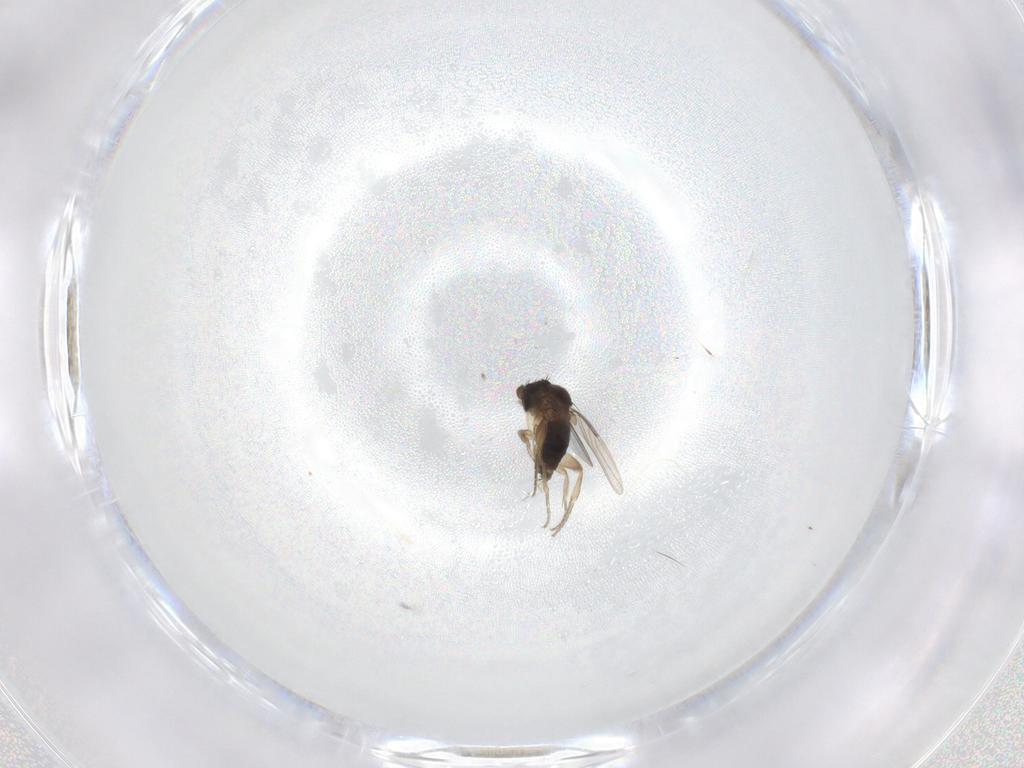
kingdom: Animalia
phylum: Arthropoda
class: Insecta
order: Diptera
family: Phoridae
